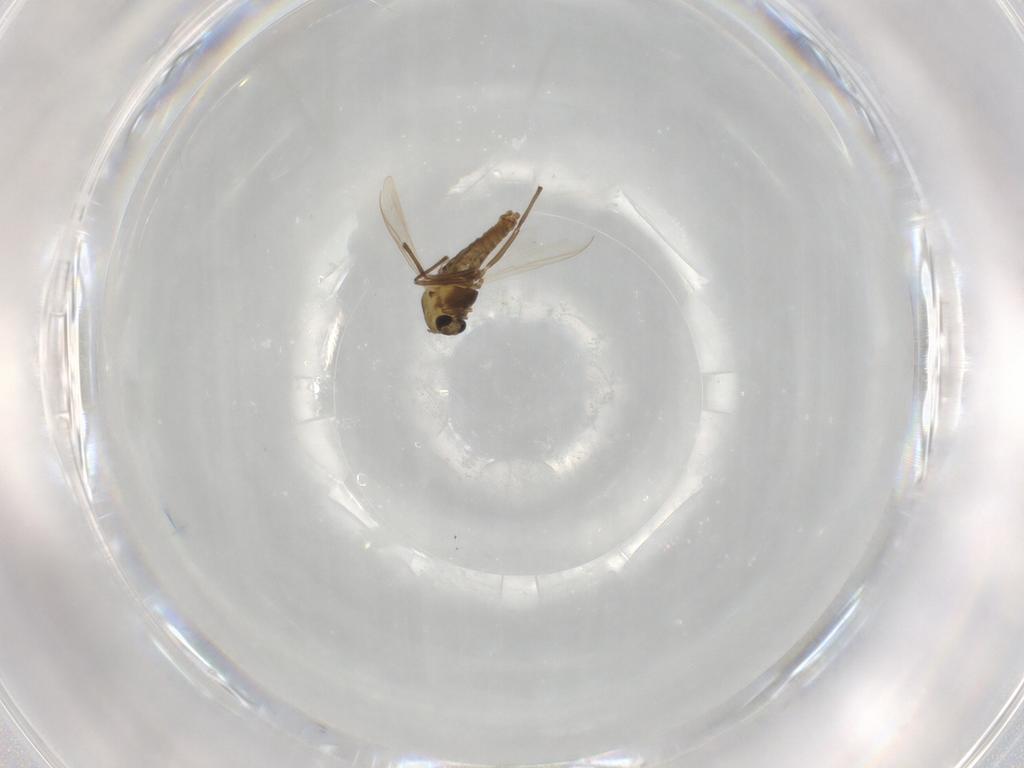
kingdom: Animalia
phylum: Arthropoda
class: Insecta
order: Diptera
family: Chironomidae
